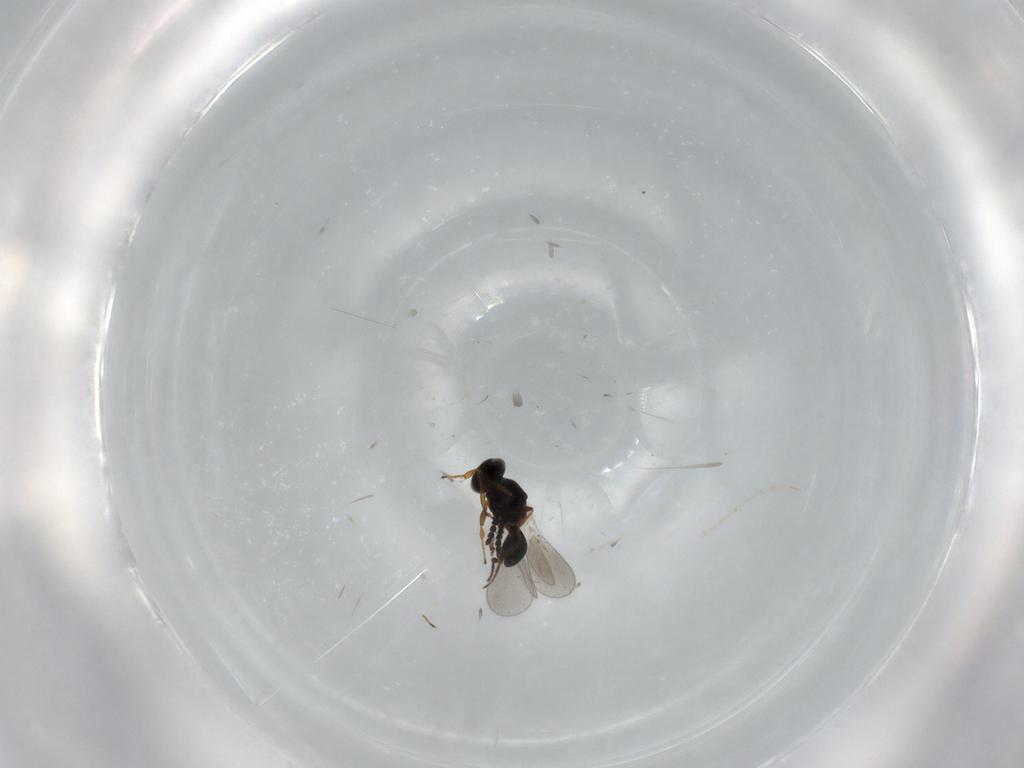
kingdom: Animalia
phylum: Arthropoda
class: Insecta
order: Hymenoptera
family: Platygastridae
